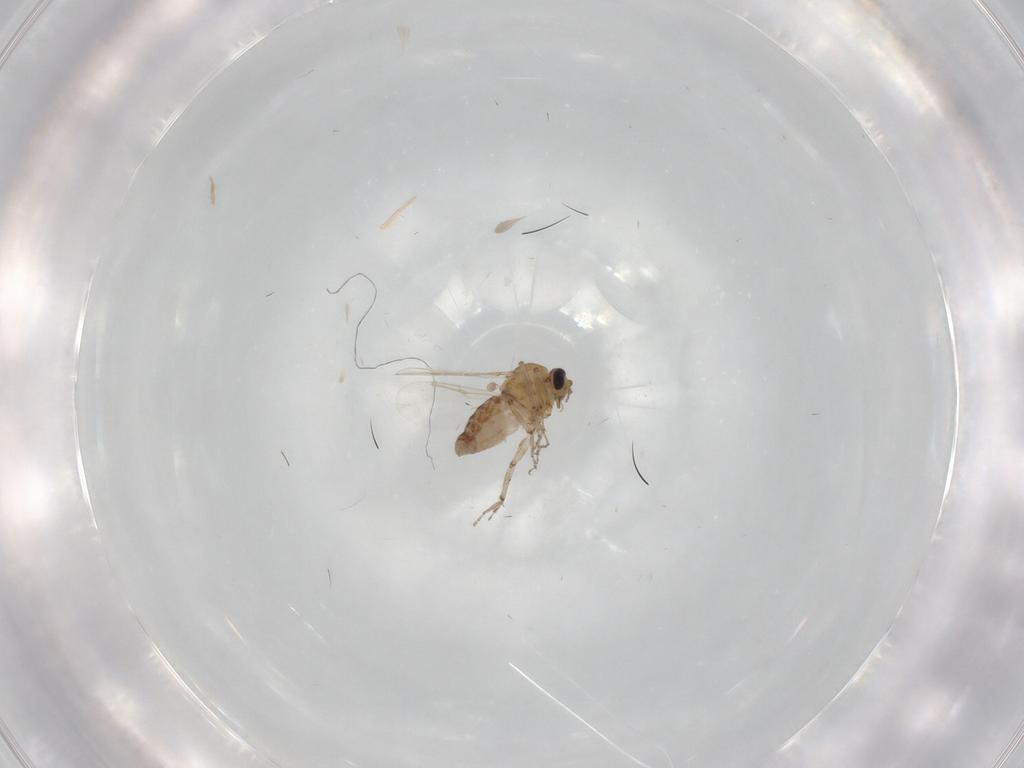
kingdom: Animalia
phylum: Arthropoda
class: Insecta
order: Diptera
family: Ceratopogonidae
